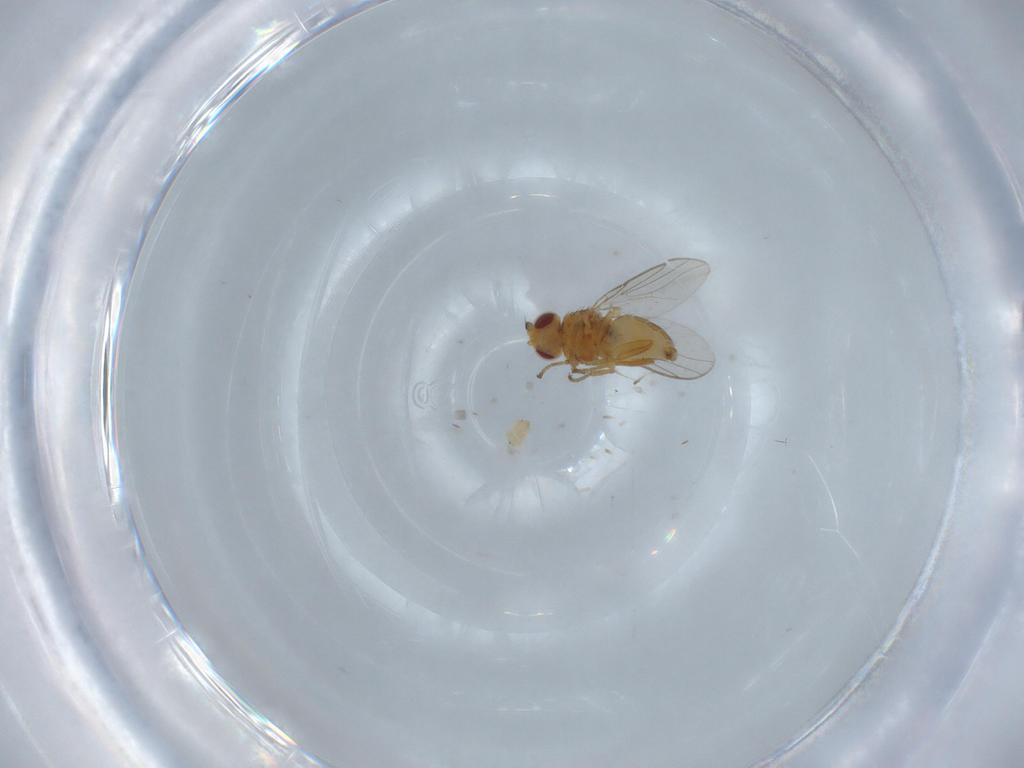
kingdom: Animalia
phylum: Arthropoda
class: Insecta
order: Diptera
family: Chloropidae
